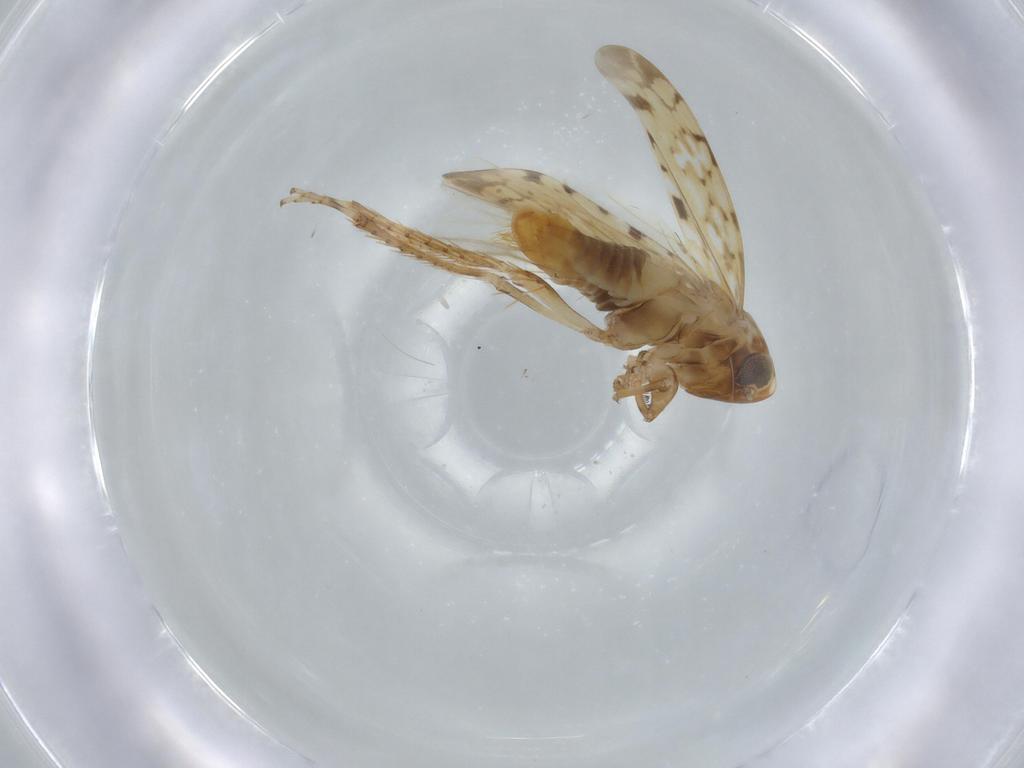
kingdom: Animalia
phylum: Arthropoda
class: Insecta
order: Hemiptera
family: Cicadellidae
